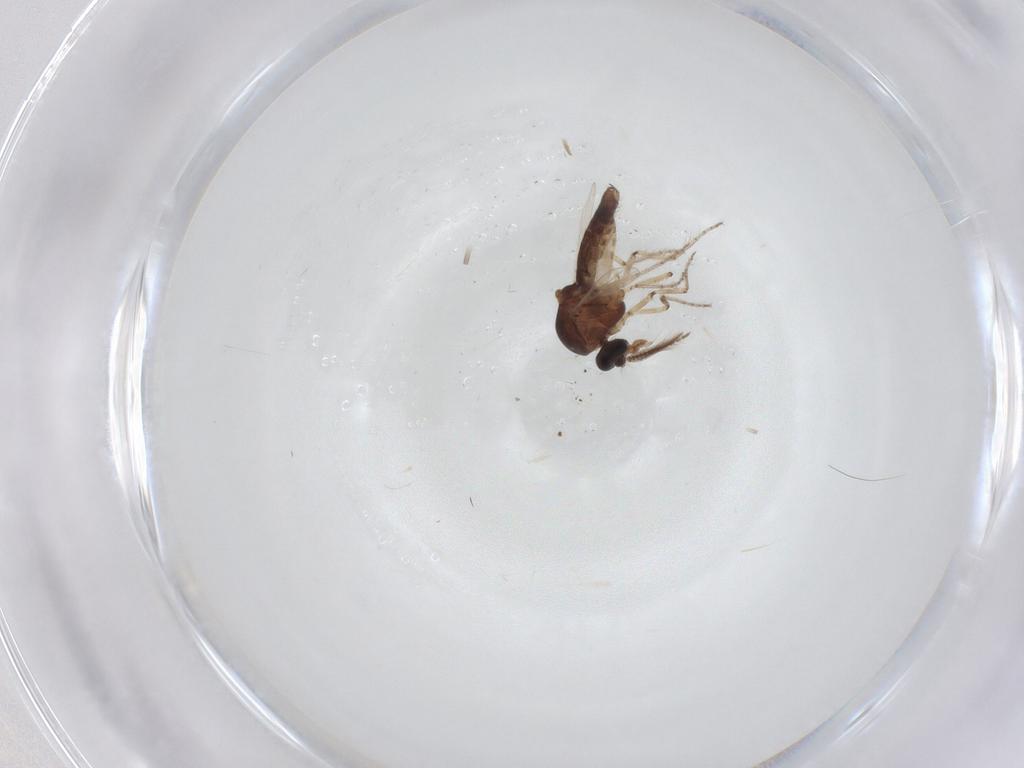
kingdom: Animalia
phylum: Arthropoda
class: Insecta
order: Diptera
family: Ceratopogonidae
